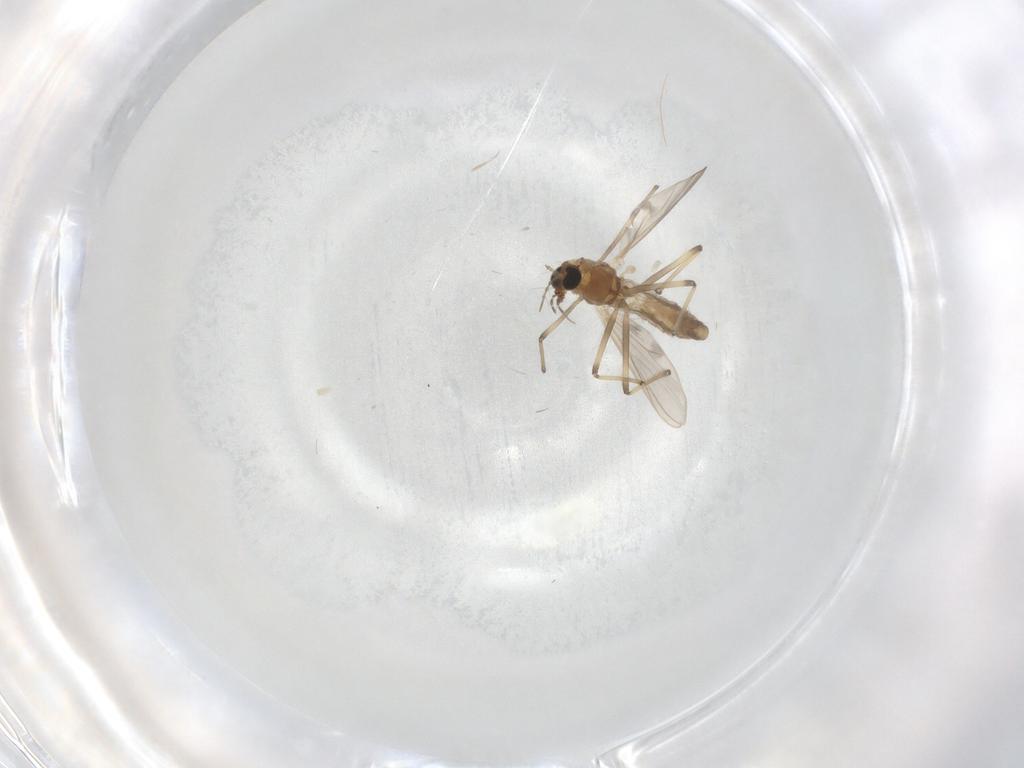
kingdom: Animalia
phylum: Arthropoda
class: Insecta
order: Diptera
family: Chironomidae
